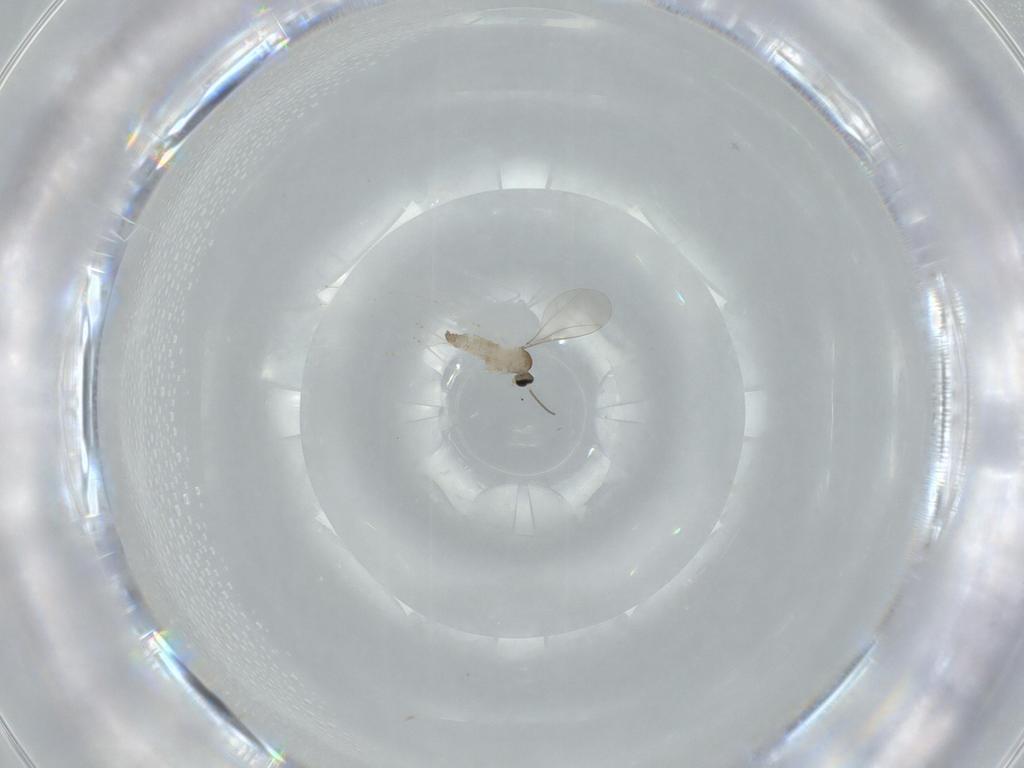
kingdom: Animalia
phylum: Arthropoda
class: Insecta
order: Diptera
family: Cecidomyiidae
